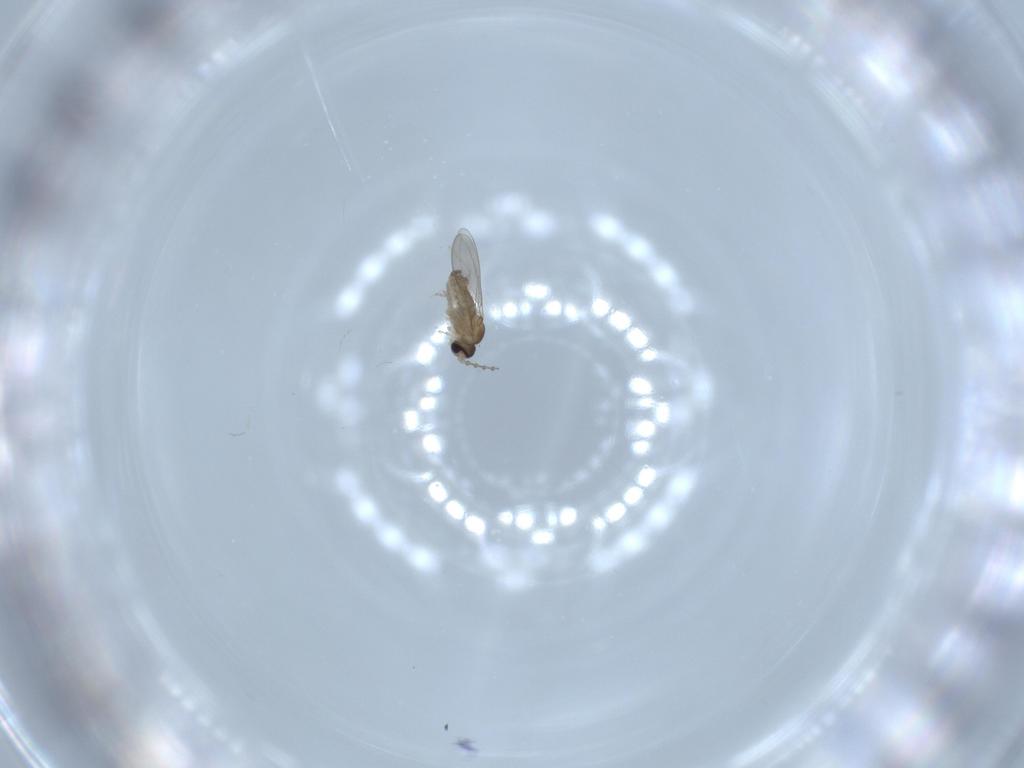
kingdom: Animalia
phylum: Arthropoda
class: Insecta
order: Diptera
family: Cecidomyiidae
